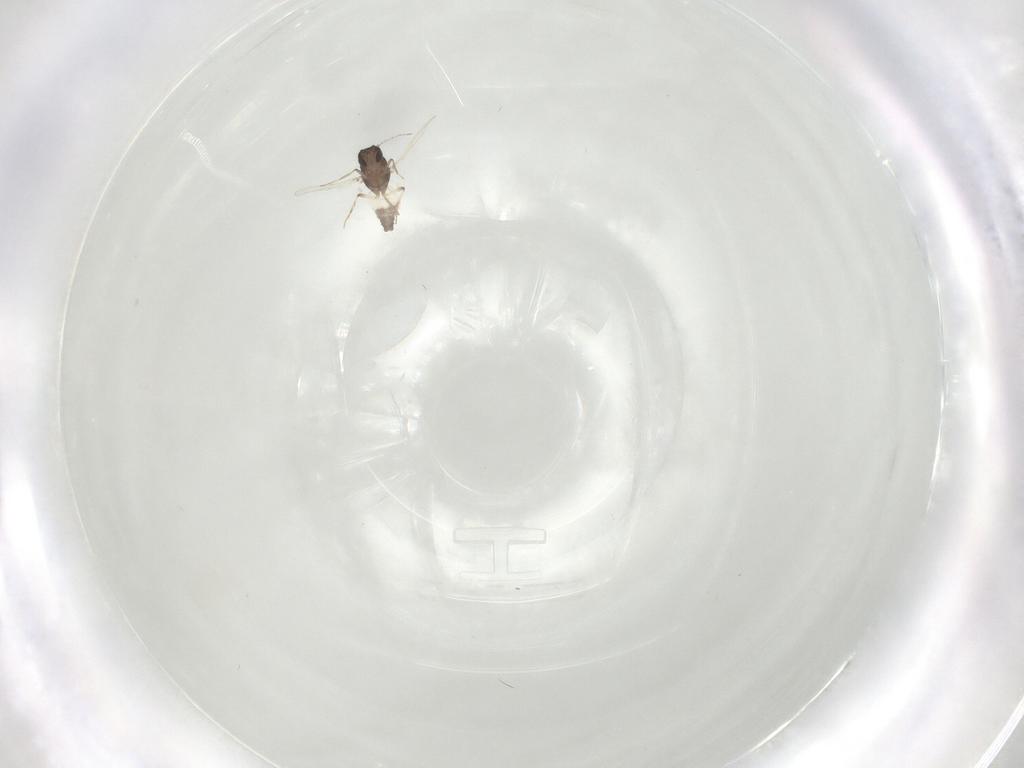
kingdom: Animalia
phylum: Arthropoda
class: Insecta
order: Diptera
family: Ceratopogonidae
